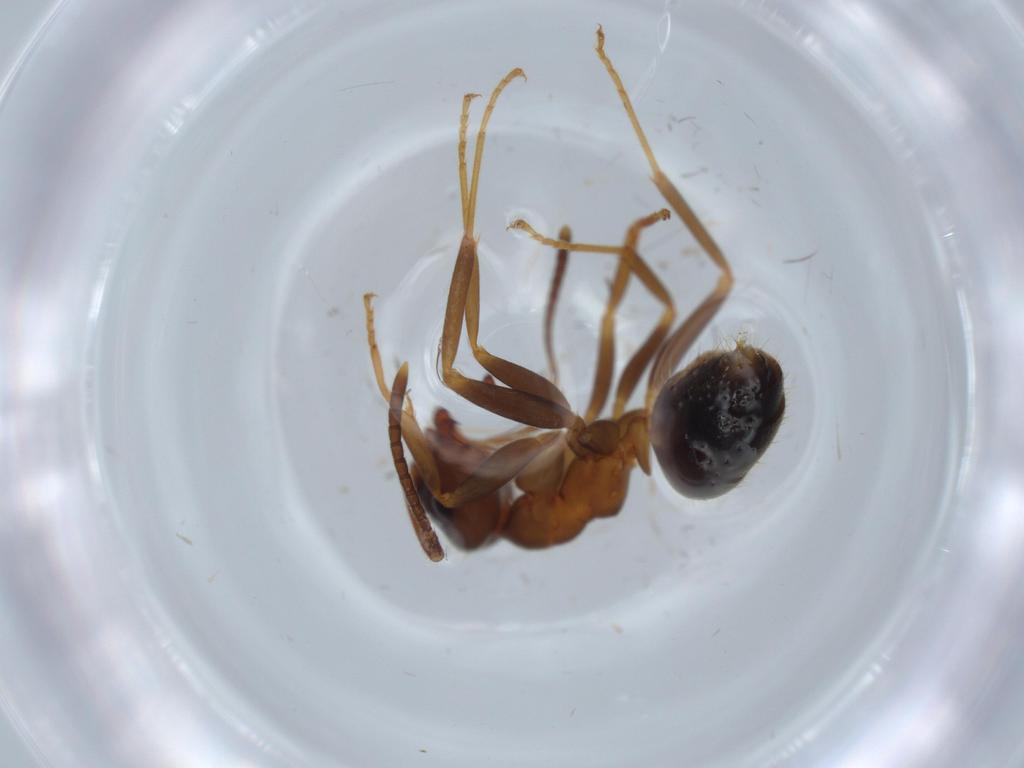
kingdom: Animalia
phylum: Arthropoda
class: Insecta
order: Hymenoptera
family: Formicidae
